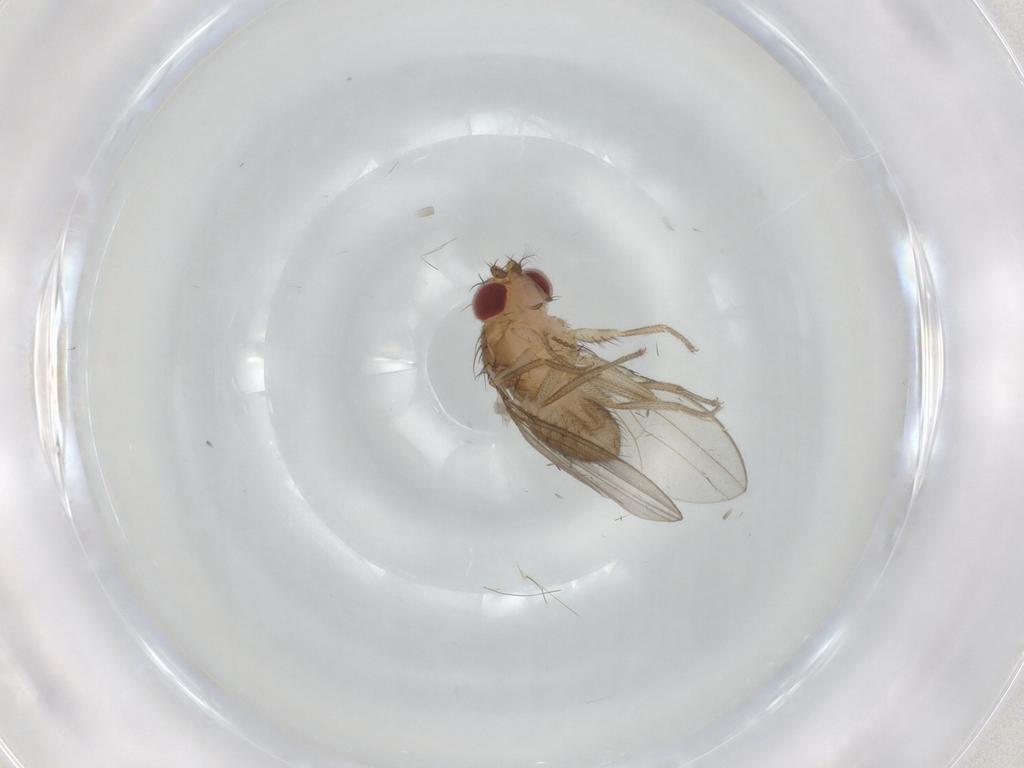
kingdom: Animalia
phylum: Arthropoda
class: Insecta
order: Diptera
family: Drosophilidae
